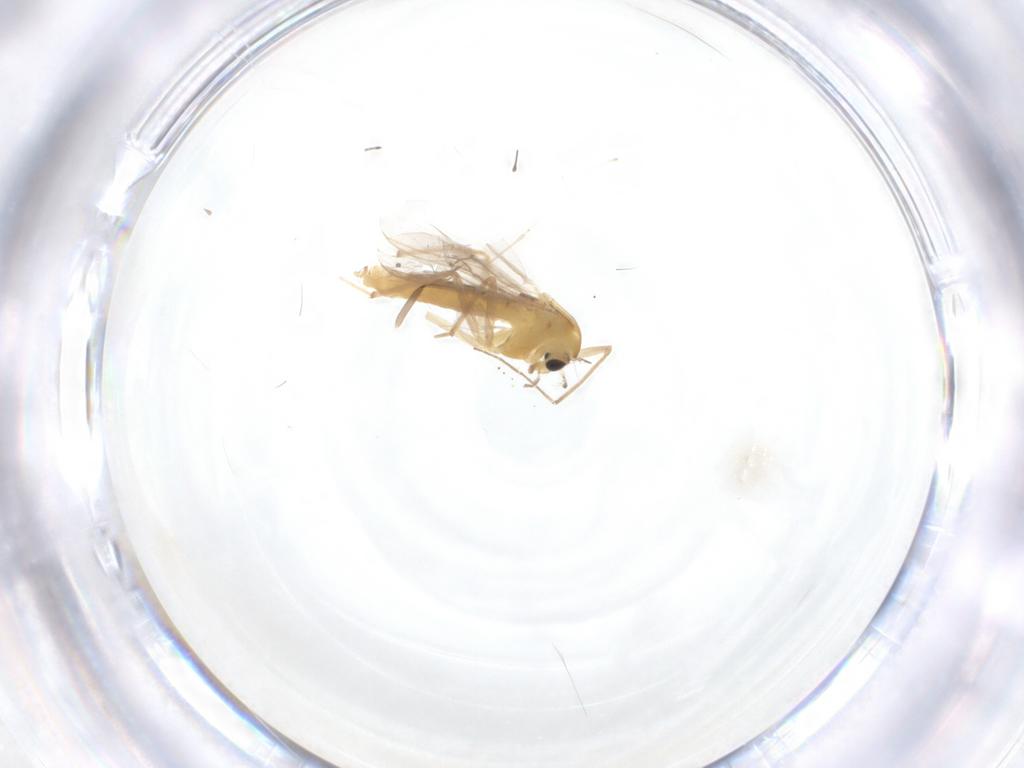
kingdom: Animalia
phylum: Arthropoda
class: Insecta
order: Diptera
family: Chironomidae
